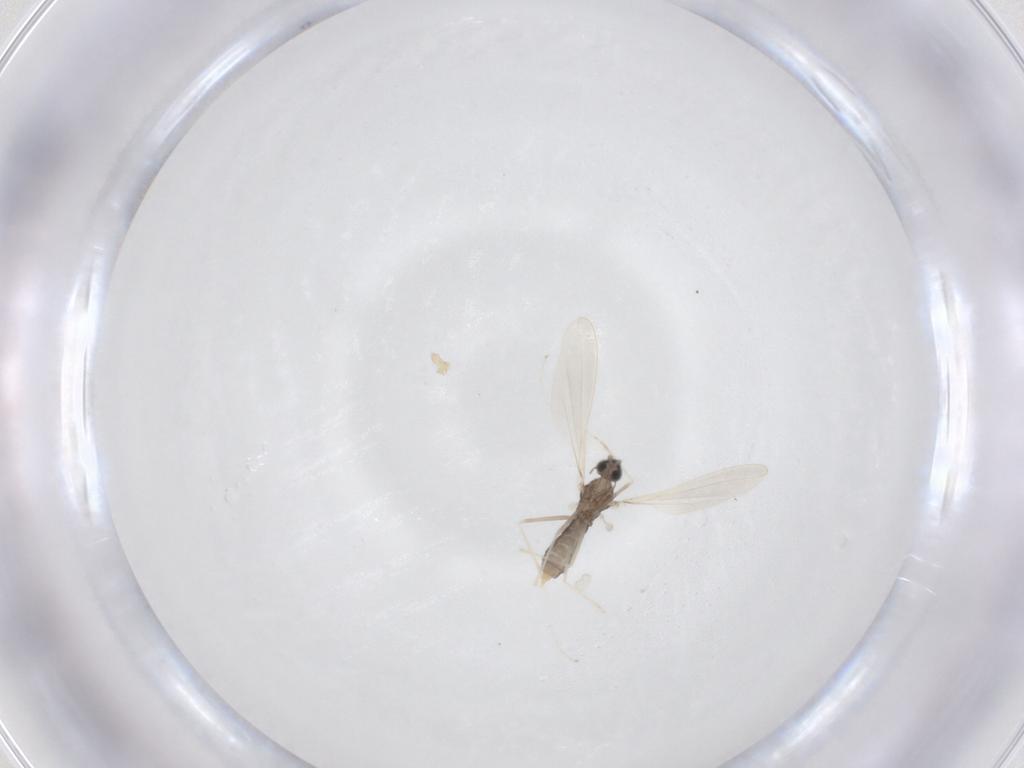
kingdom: Animalia
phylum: Arthropoda
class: Insecta
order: Diptera
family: Cecidomyiidae
